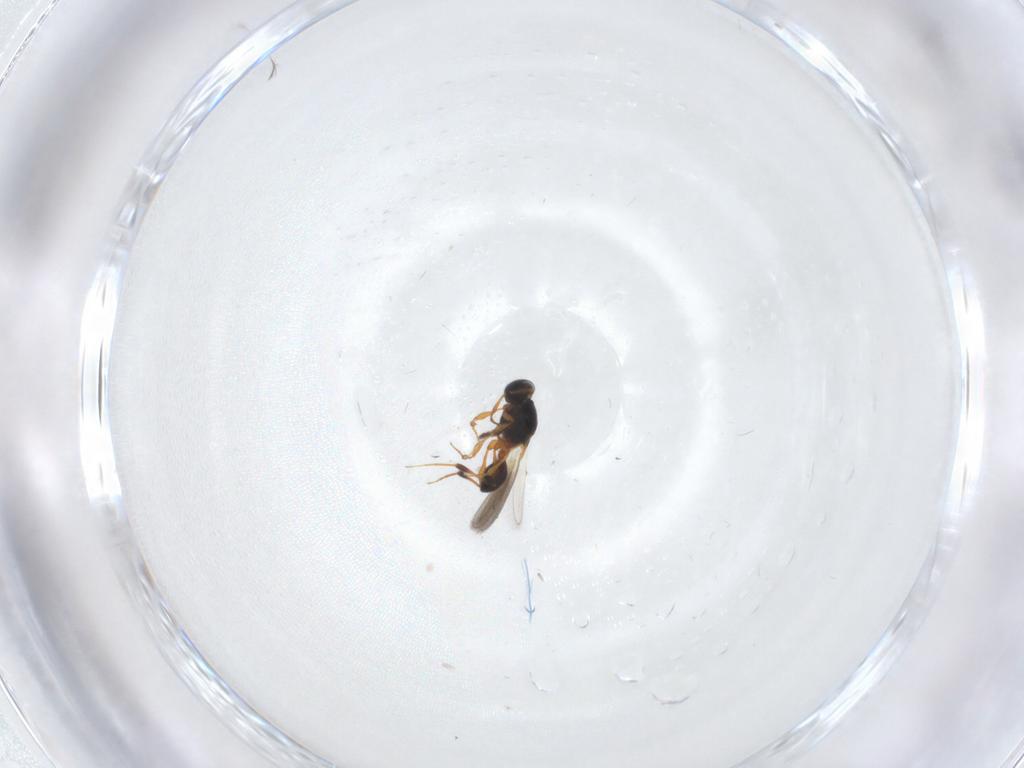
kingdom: Animalia
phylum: Arthropoda
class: Insecta
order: Hymenoptera
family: Platygastridae
